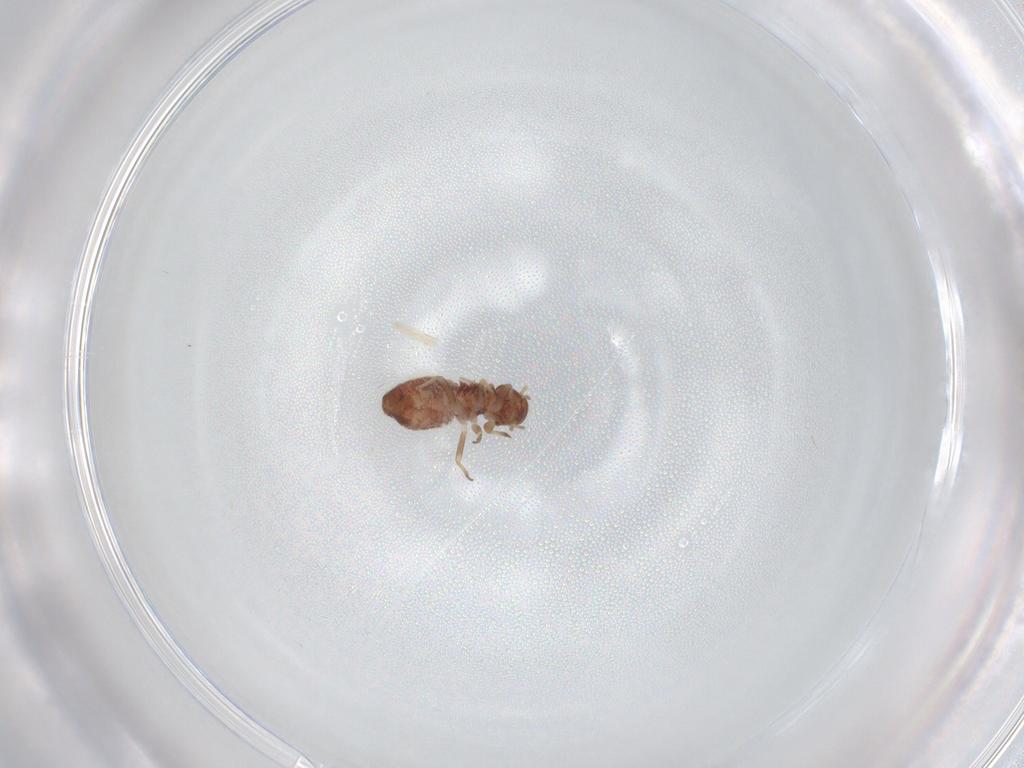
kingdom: Animalia
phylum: Arthropoda
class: Insecta
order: Psocodea
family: Archipsocidae
